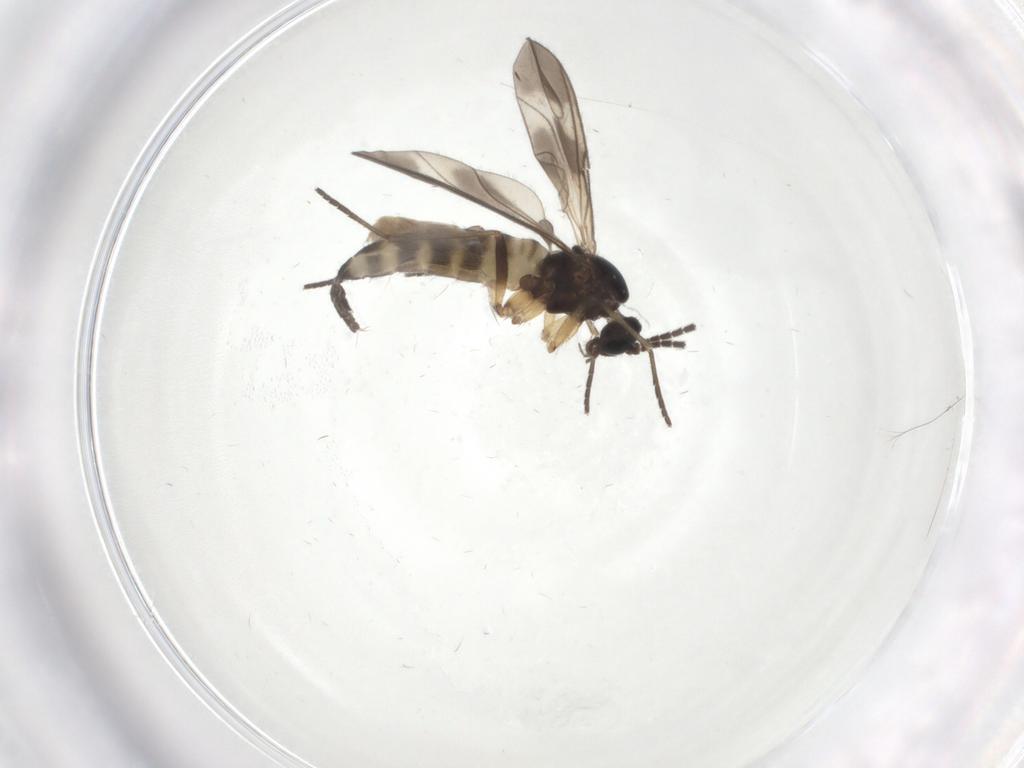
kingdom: Animalia
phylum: Arthropoda
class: Insecta
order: Diptera
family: Sciaridae
